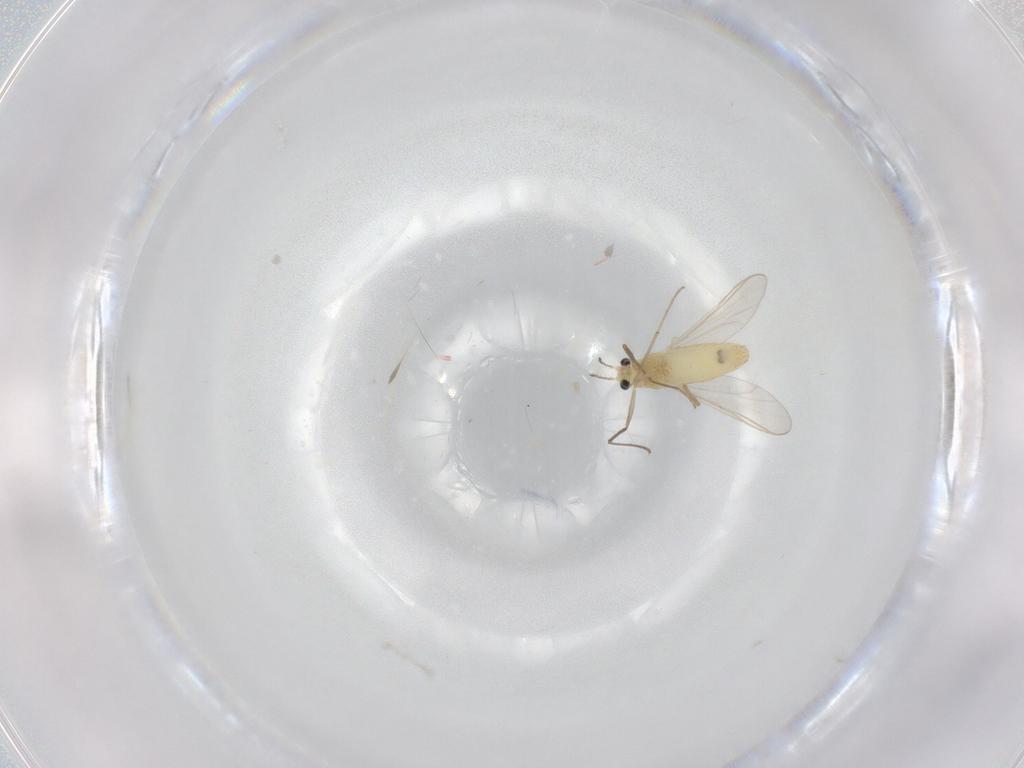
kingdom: Animalia
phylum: Arthropoda
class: Insecta
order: Diptera
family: Chironomidae
